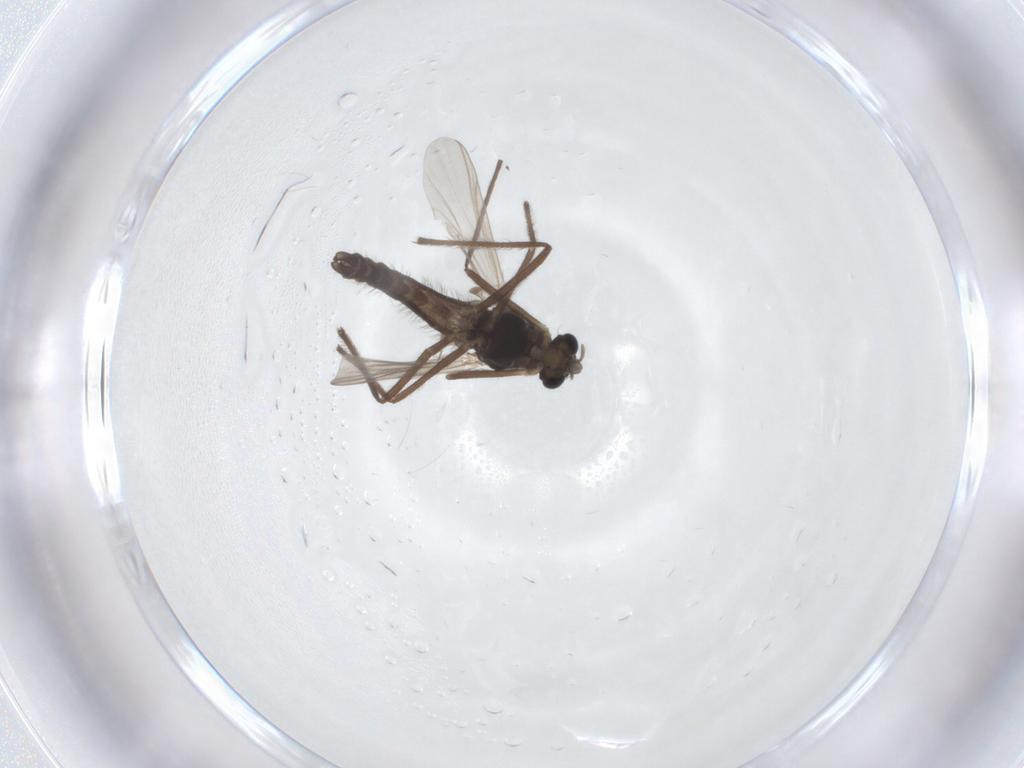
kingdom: Animalia
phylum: Arthropoda
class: Insecta
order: Diptera
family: Chironomidae
